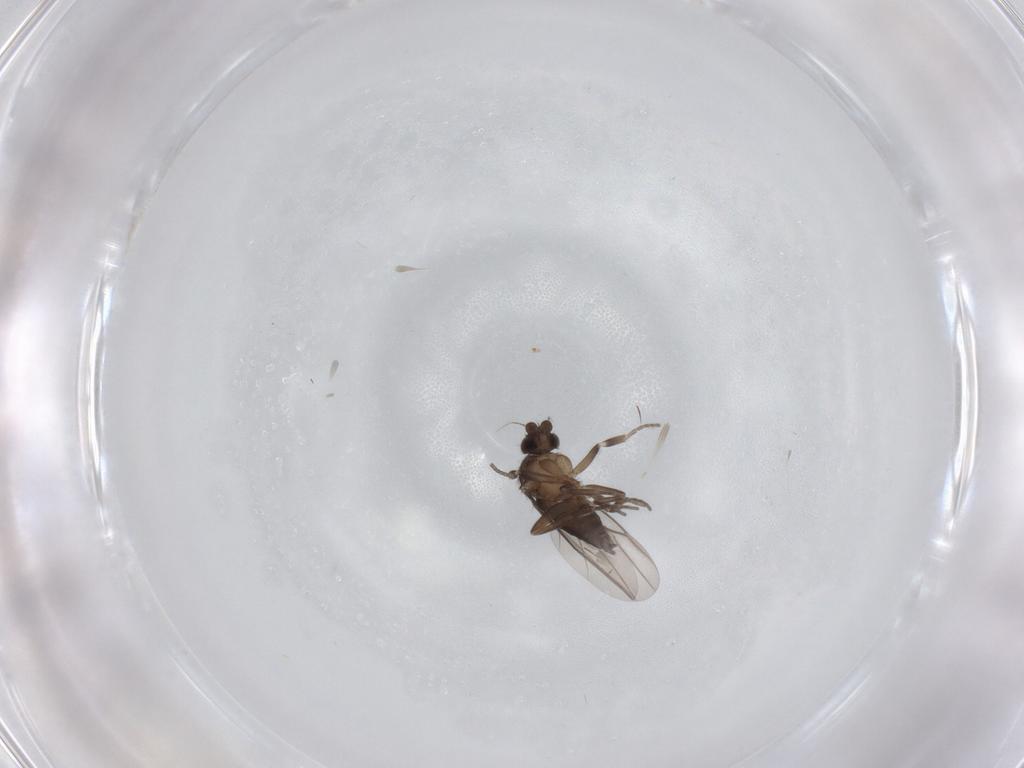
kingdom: Animalia
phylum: Arthropoda
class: Insecta
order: Diptera
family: Phoridae
